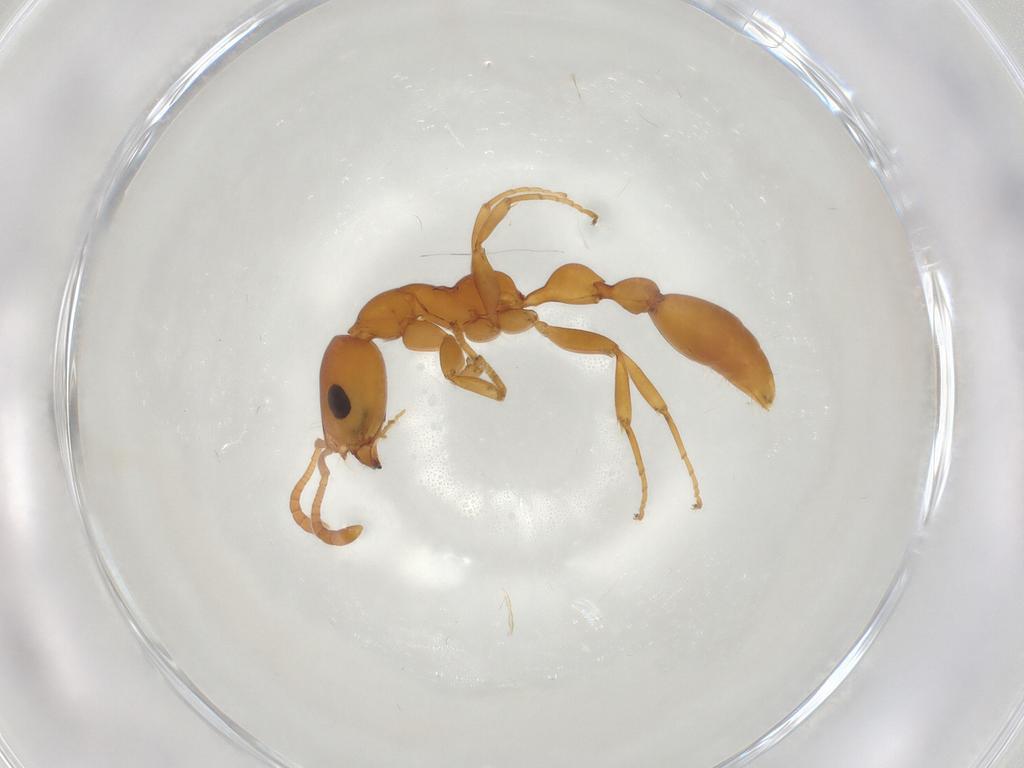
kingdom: Animalia
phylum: Arthropoda
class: Insecta
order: Hymenoptera
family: Formicidae
